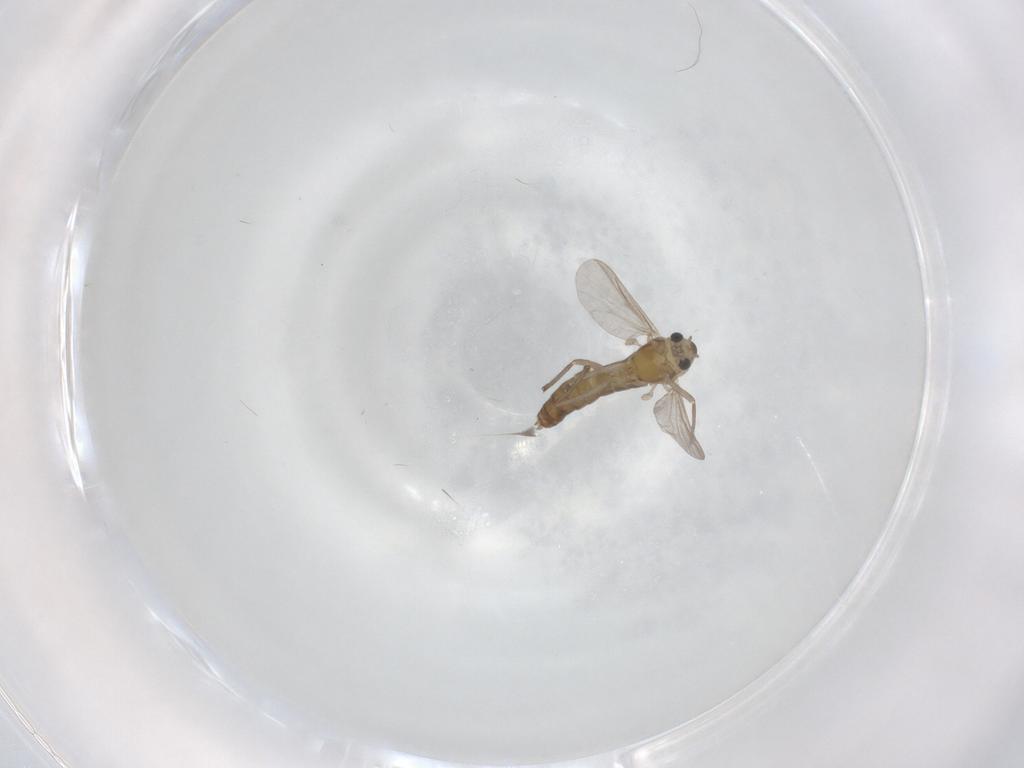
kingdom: Animalia
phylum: Arthropoda
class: Insecta
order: Diptera
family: Chironomidae
